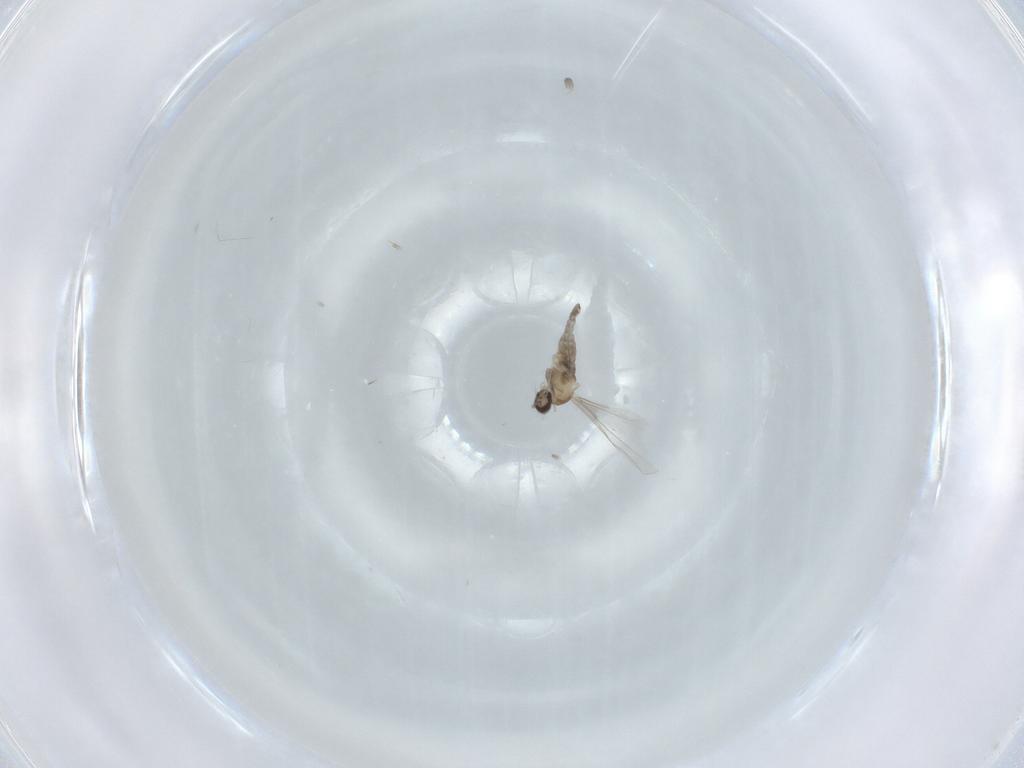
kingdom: Animalia
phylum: Arthropoda
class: Insecta
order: Diptera
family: Cecidomyiidae
